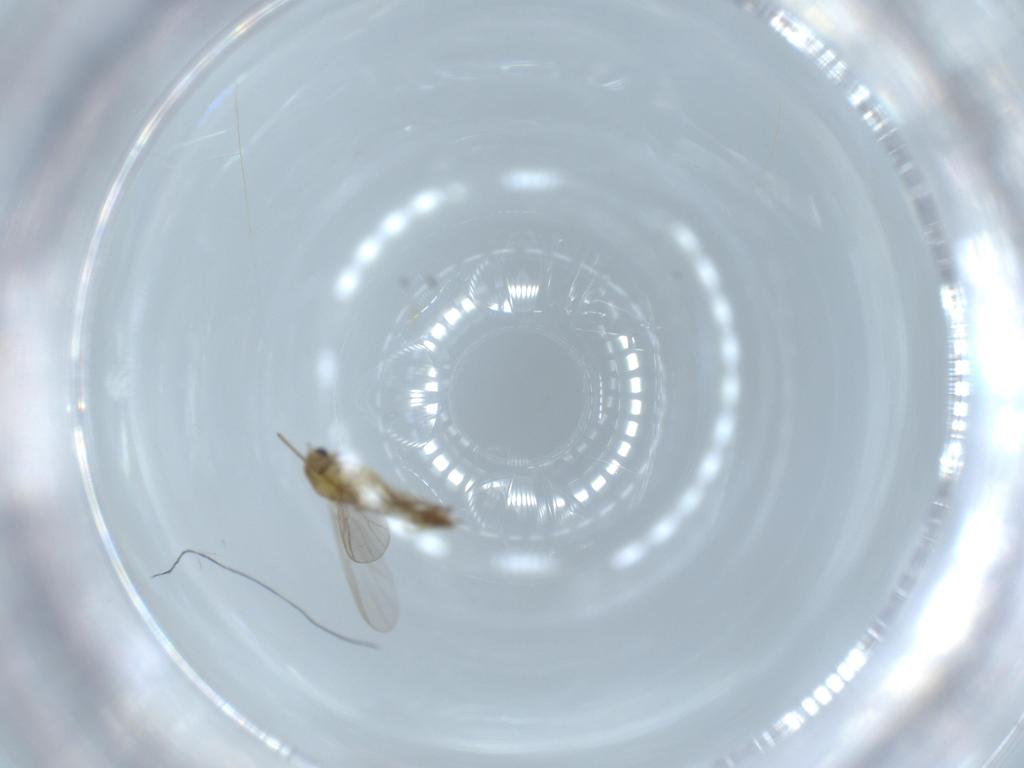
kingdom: Animalia
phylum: Arthropoda
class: Insecta
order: Diptera
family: Chironomidae
